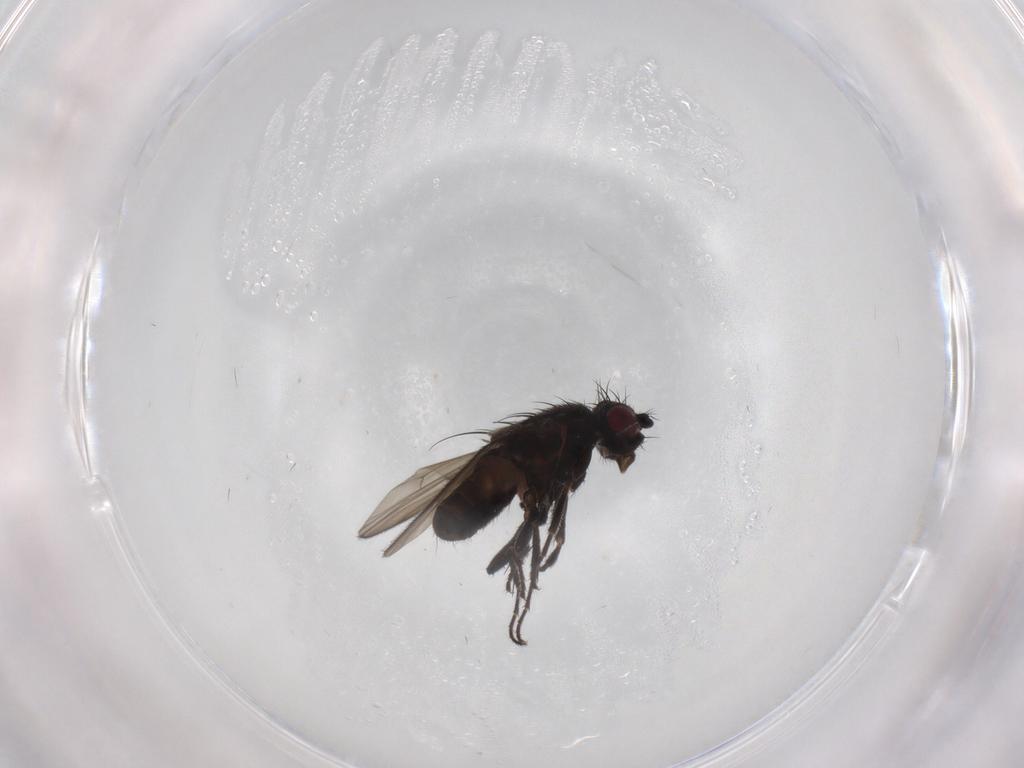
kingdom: Animalia
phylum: Arthropoda
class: Insecta
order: Diptera
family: Sphaeroceridae
